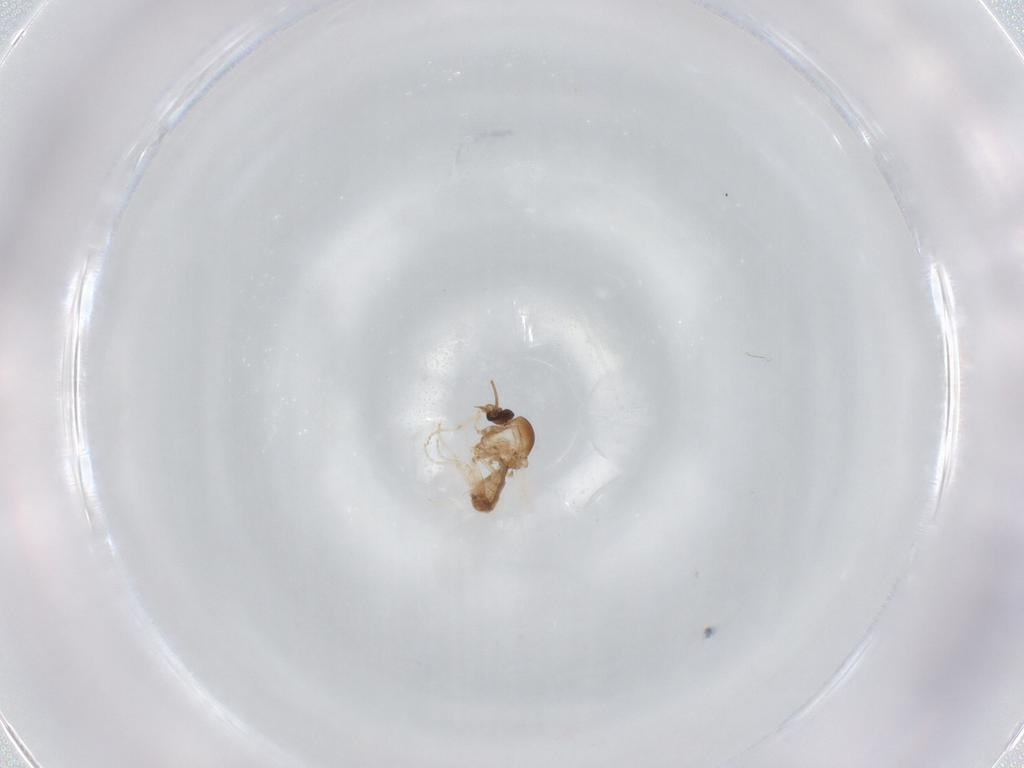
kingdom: Animalia
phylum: Arthropoda
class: Insecta
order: Diptera
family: Ceratopogonidae
